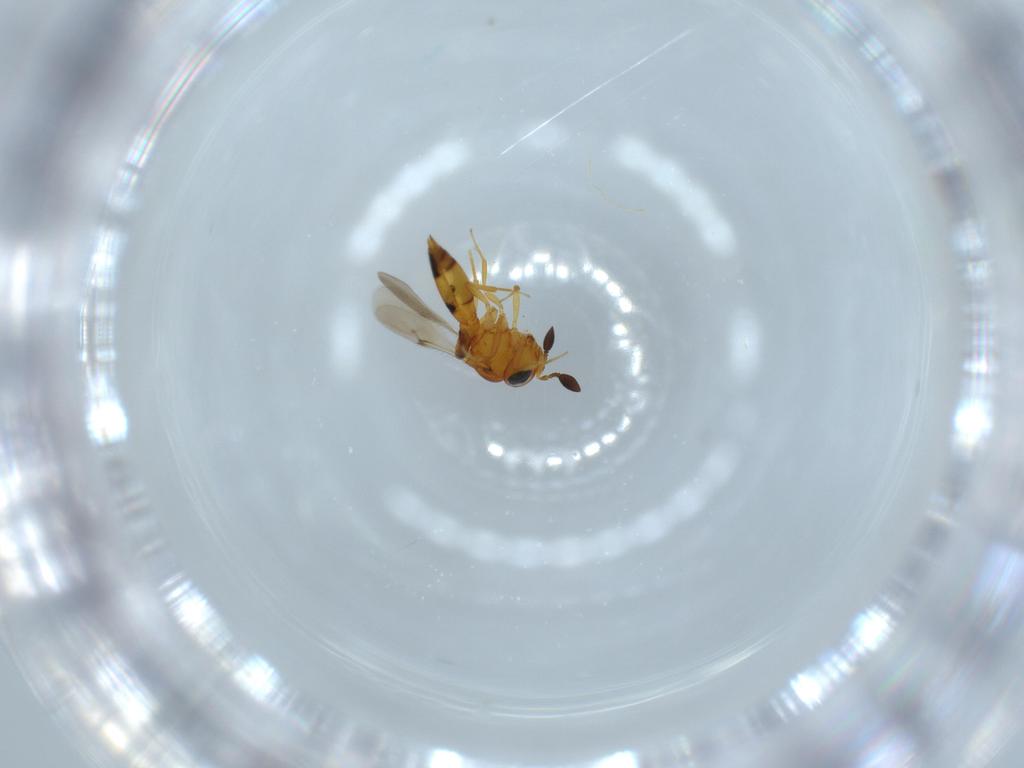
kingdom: Animalia
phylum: Arthropoda
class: Insecta
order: Hymenoptera
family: Scelionidae
